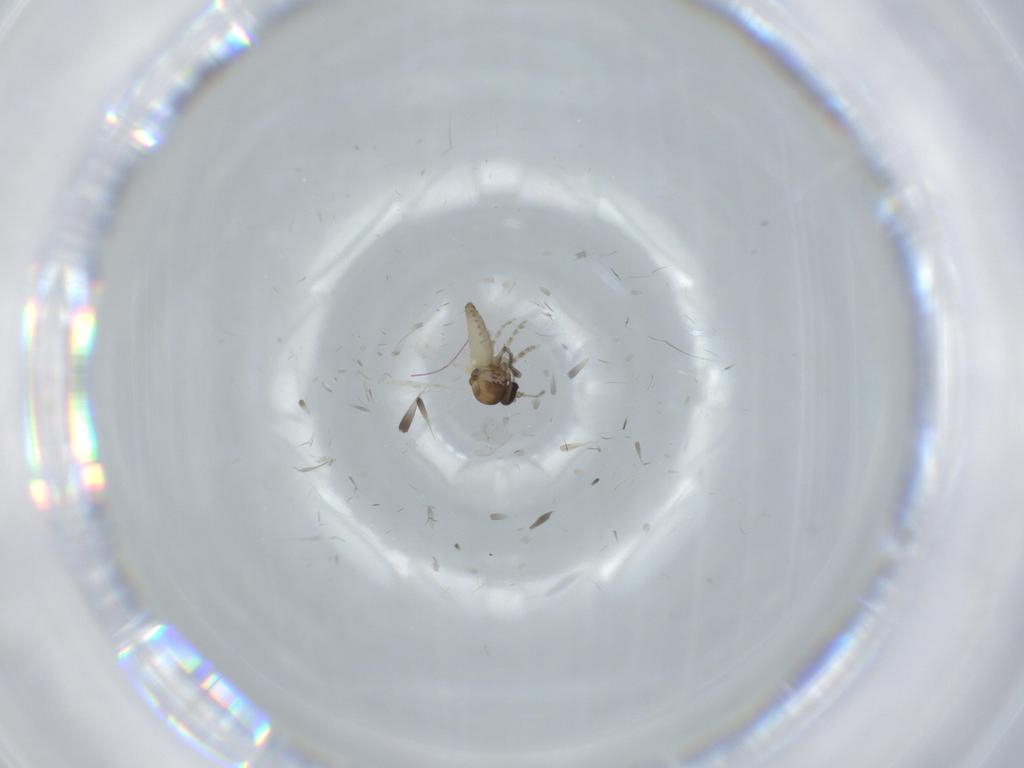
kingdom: Animalia
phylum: Arthropoda
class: Insecta
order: Diptera
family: Ceratopogonidae
